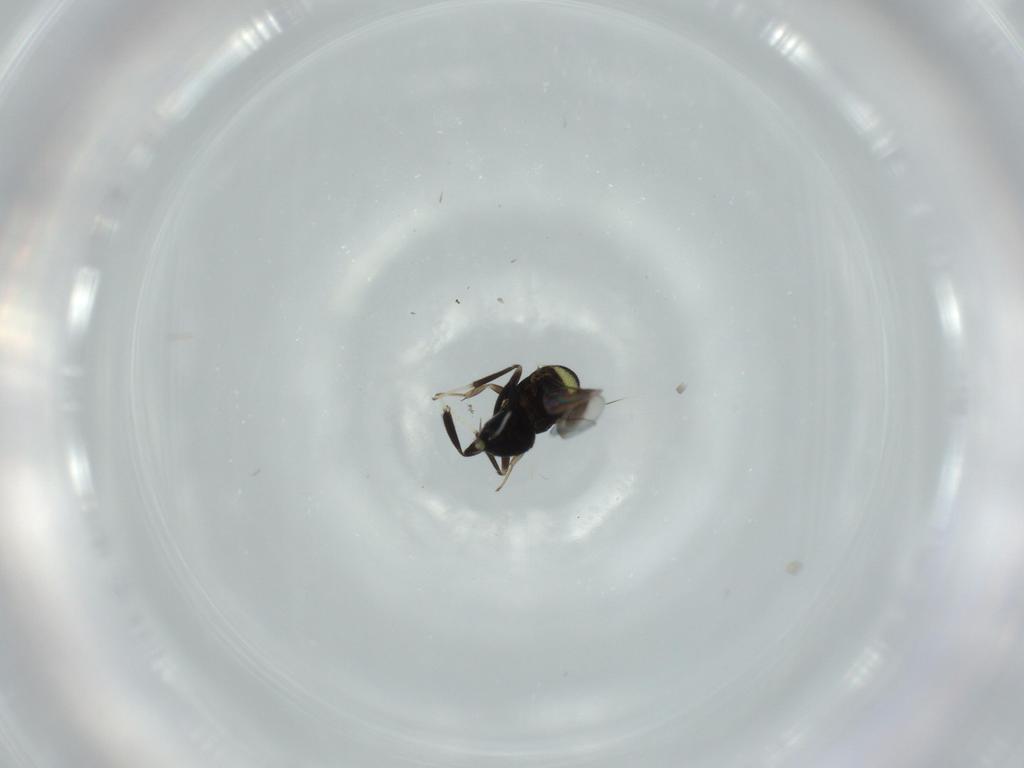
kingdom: Animalia
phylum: Arthropoda
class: Insecta
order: Hymenoptera
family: Aphelinidae
